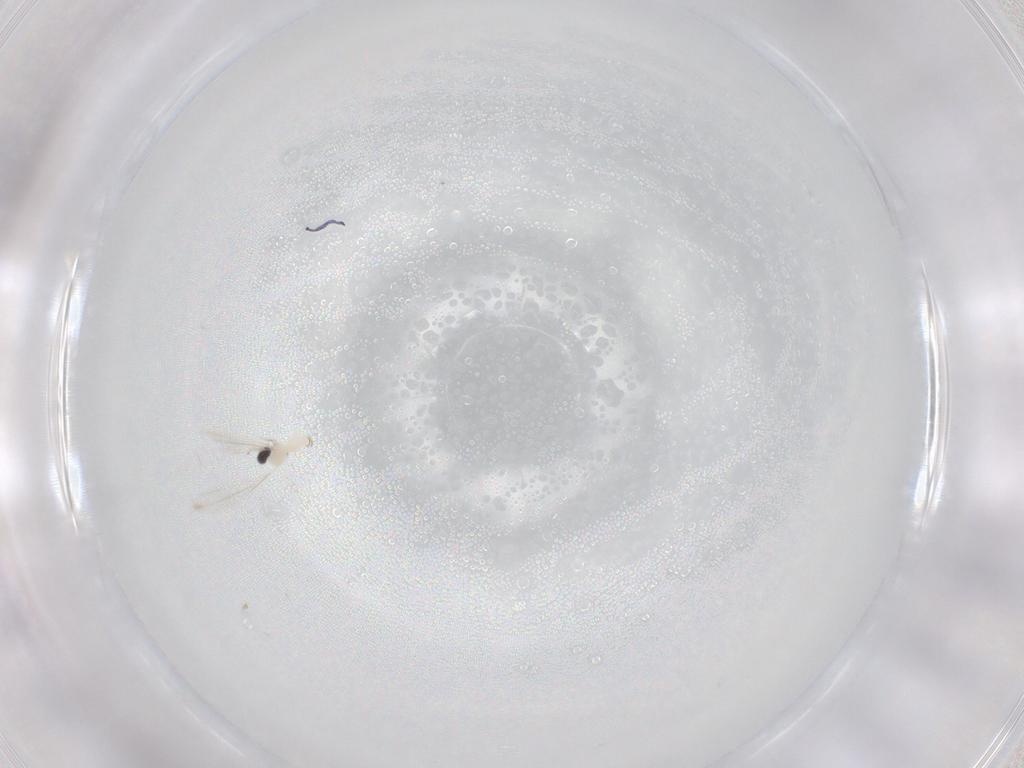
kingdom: Animalia
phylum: Arthropoda
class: Insecta
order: Diptera
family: Cecidomyiidae
